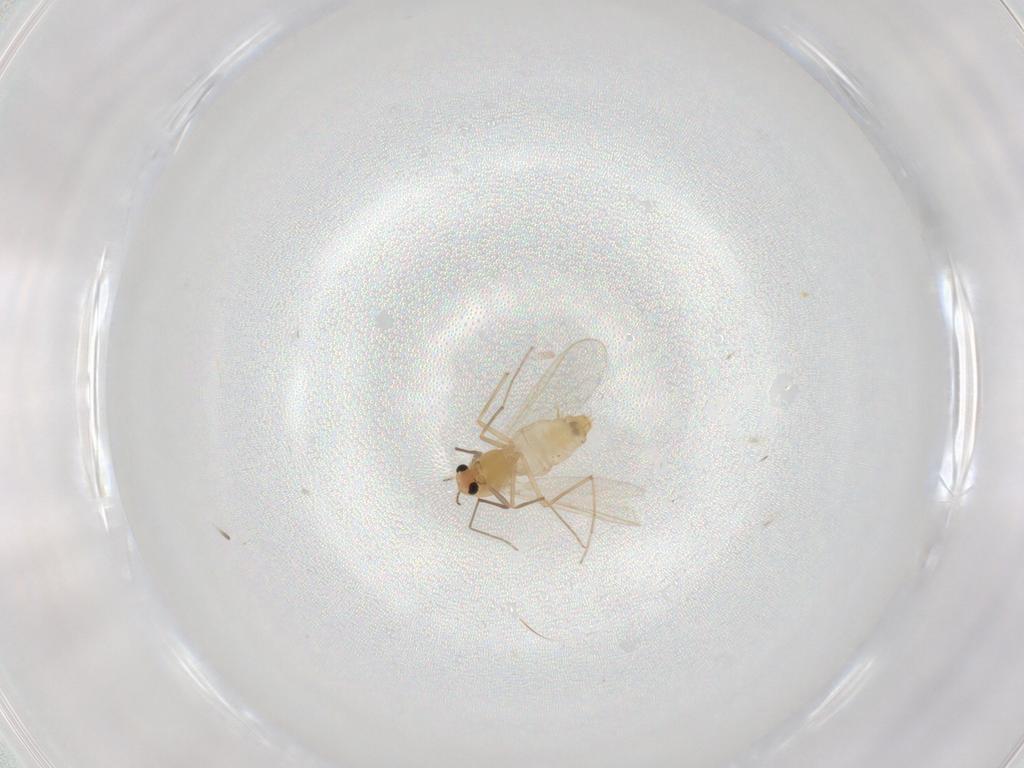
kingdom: Animalia
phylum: Arthropoda
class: Insecta
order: Diptera
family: Chironomidae
